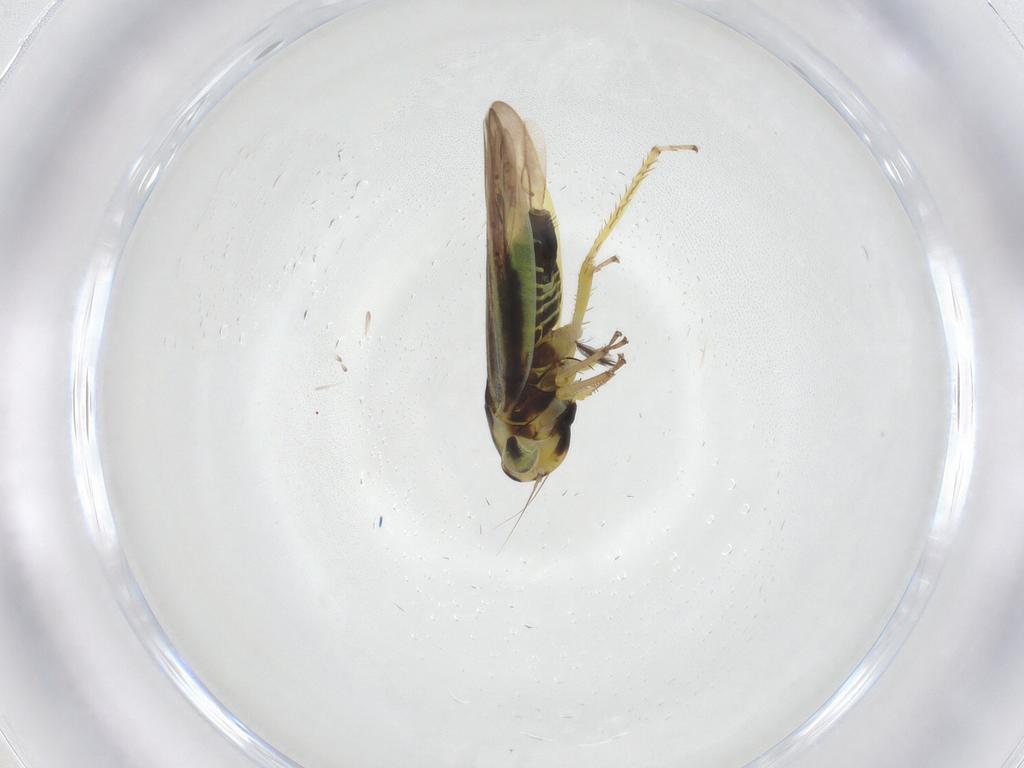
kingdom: Animalia
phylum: Arthropoda
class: Insecta
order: Hemiptera
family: Cicadellidae
